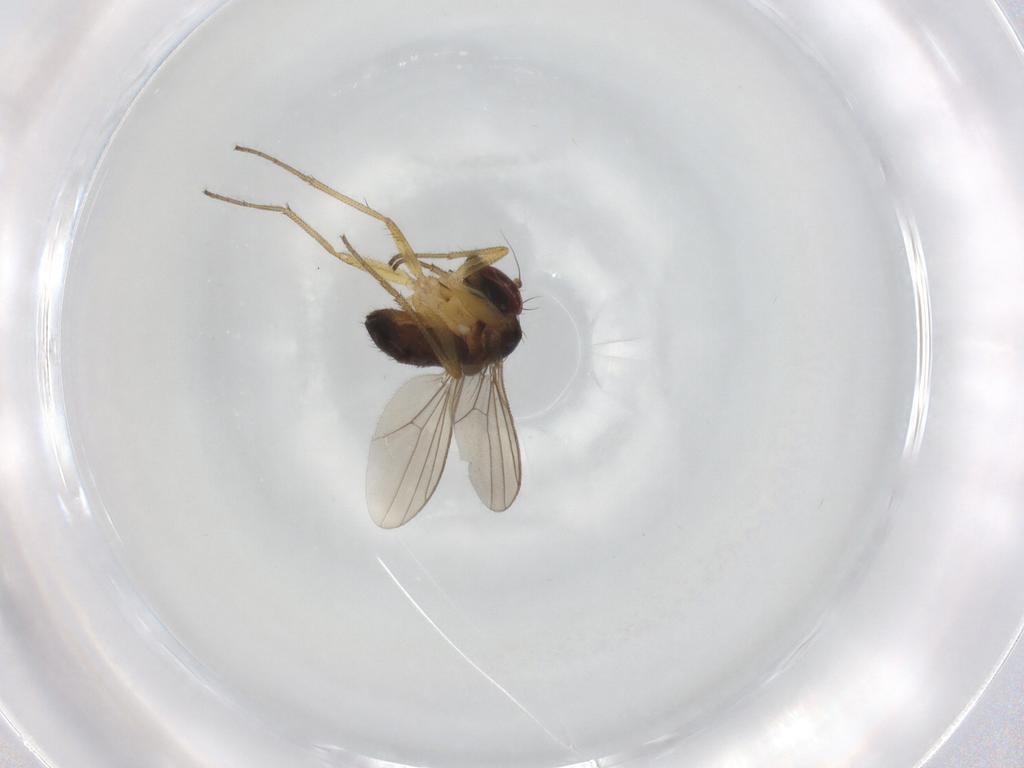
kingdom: Animalia
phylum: Arthropoda
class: Insecta
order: Diptera
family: Dolichopodidae
